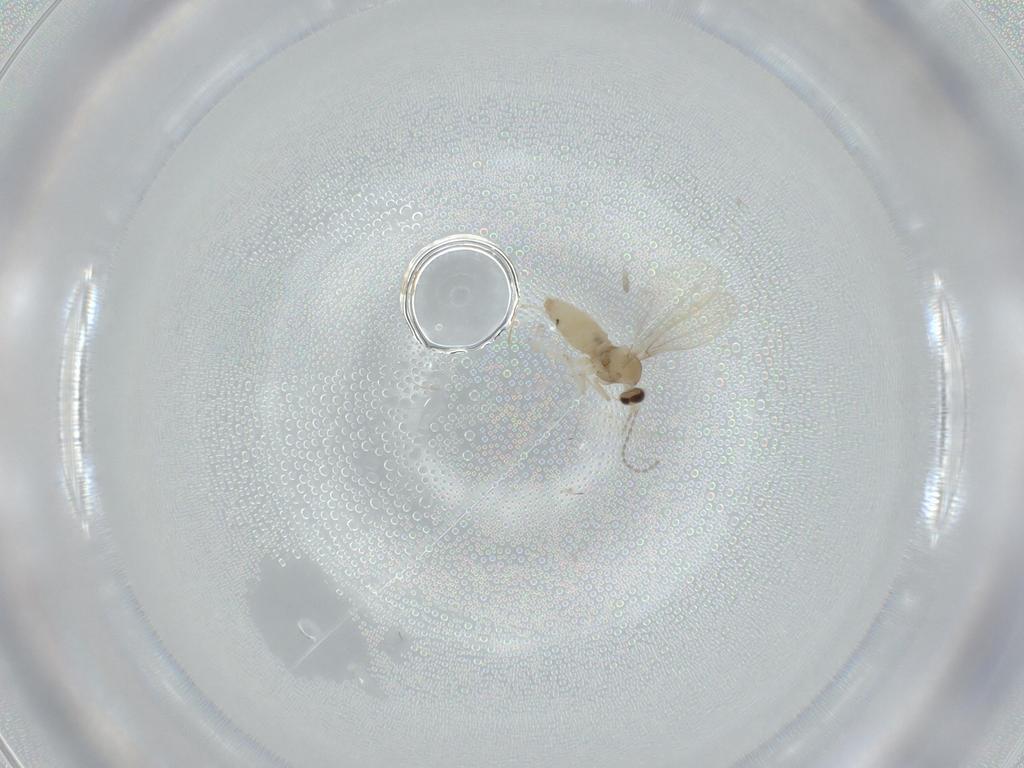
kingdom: Animalia
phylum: Arthropoda
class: Insecta
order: Diptera
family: Cecidomyiidae
